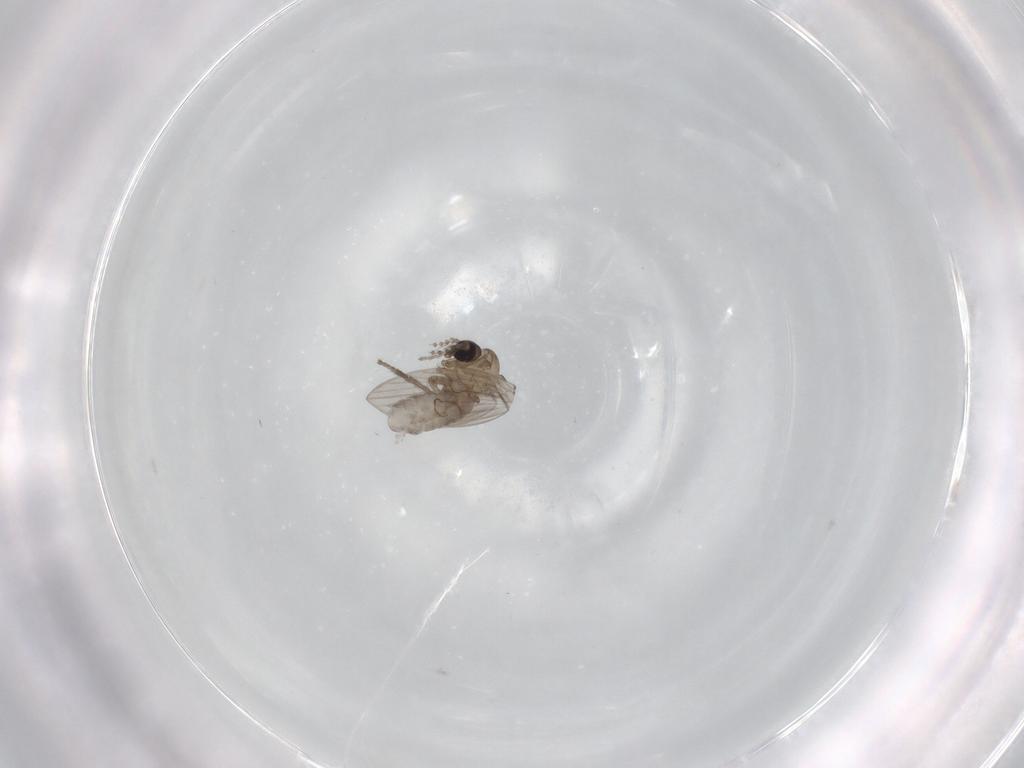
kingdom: Animalia
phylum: Arthropoda
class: Insecta
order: Diptera
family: Psychodidae
